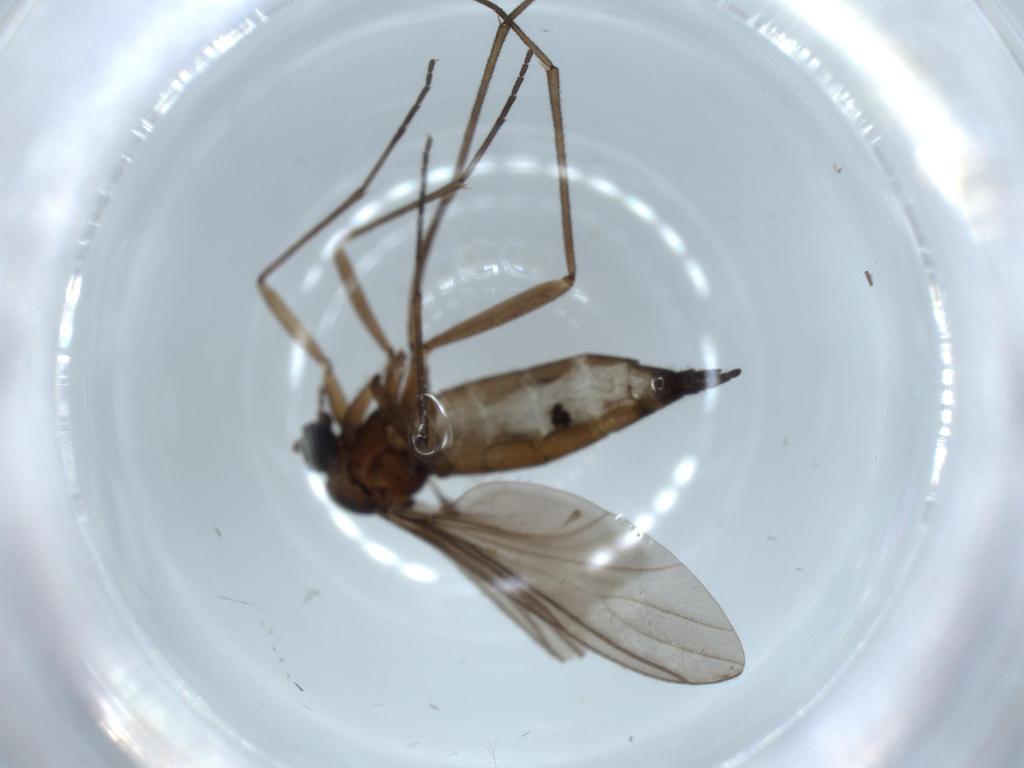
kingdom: Animalia
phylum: Arthropoda
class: Insecta
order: Diptera
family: Sciaridae
